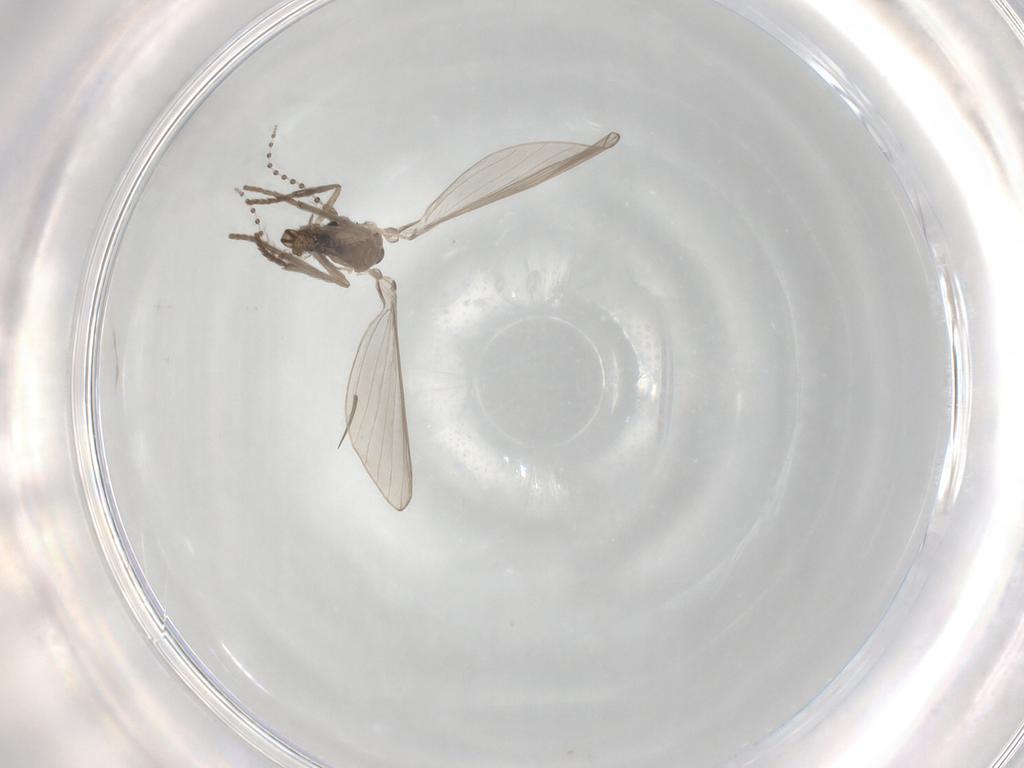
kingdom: Animalia
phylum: Arthropoda
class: Insecta
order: Diptera
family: Psychodidae
